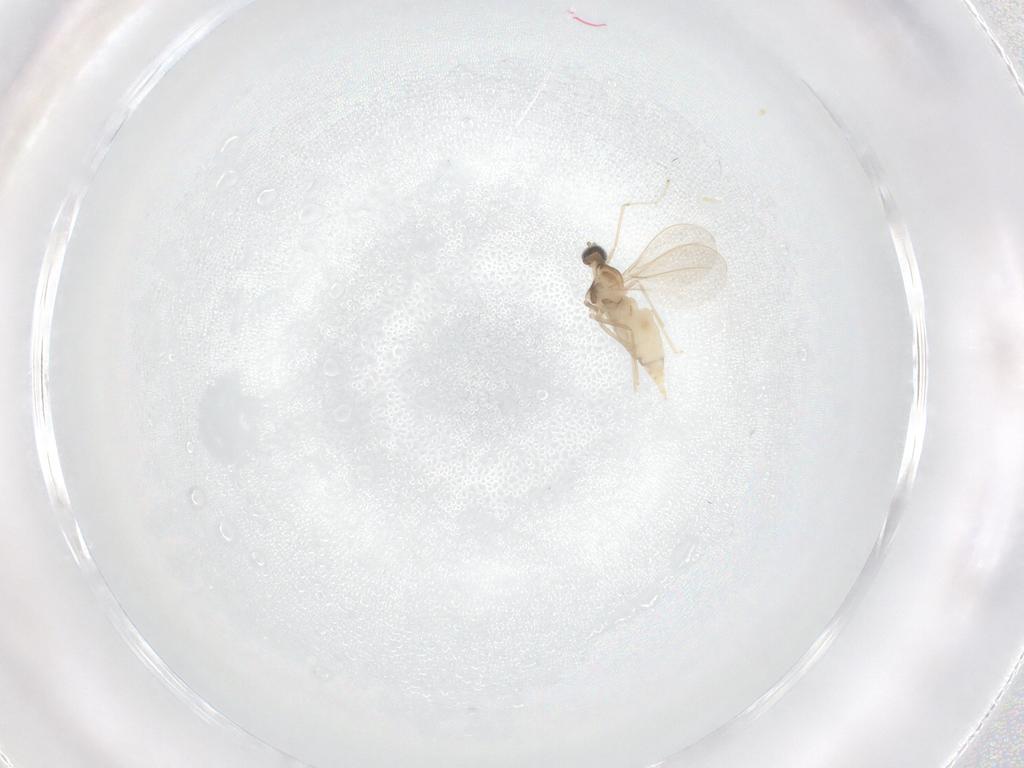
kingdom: Animalia
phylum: Arthropoda
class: Insecta
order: Diptera
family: Cecidomyiidae
